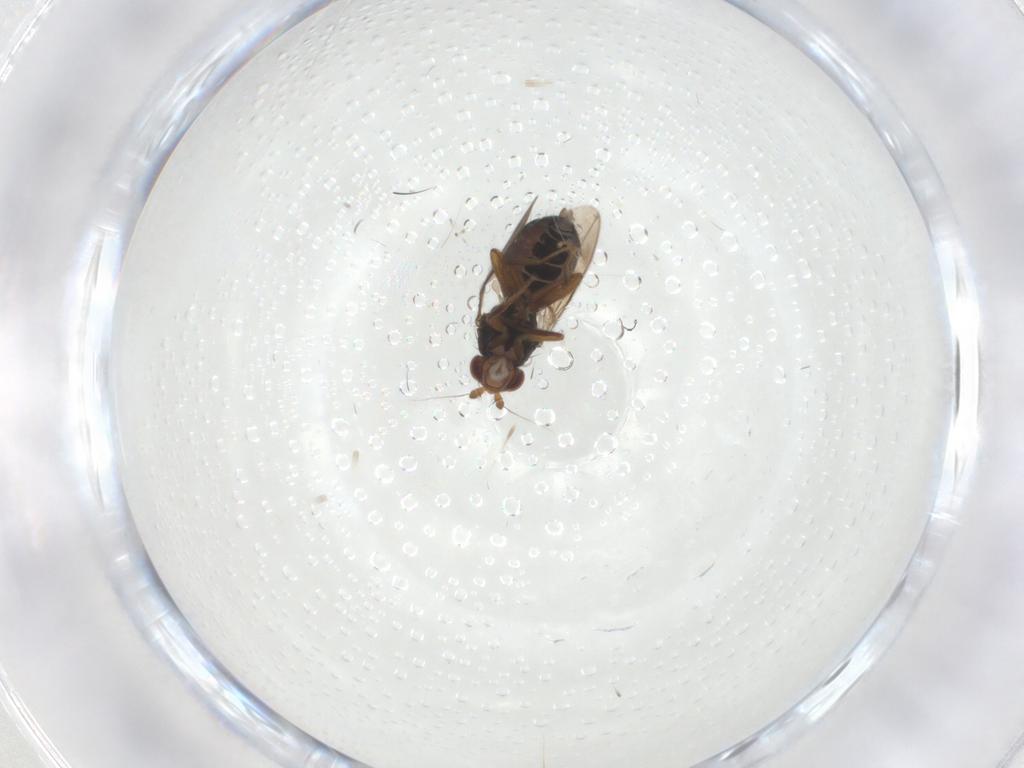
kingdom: Animalia
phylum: Arthropoda
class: Insecta
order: Diptera
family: Sphaeroceridae
